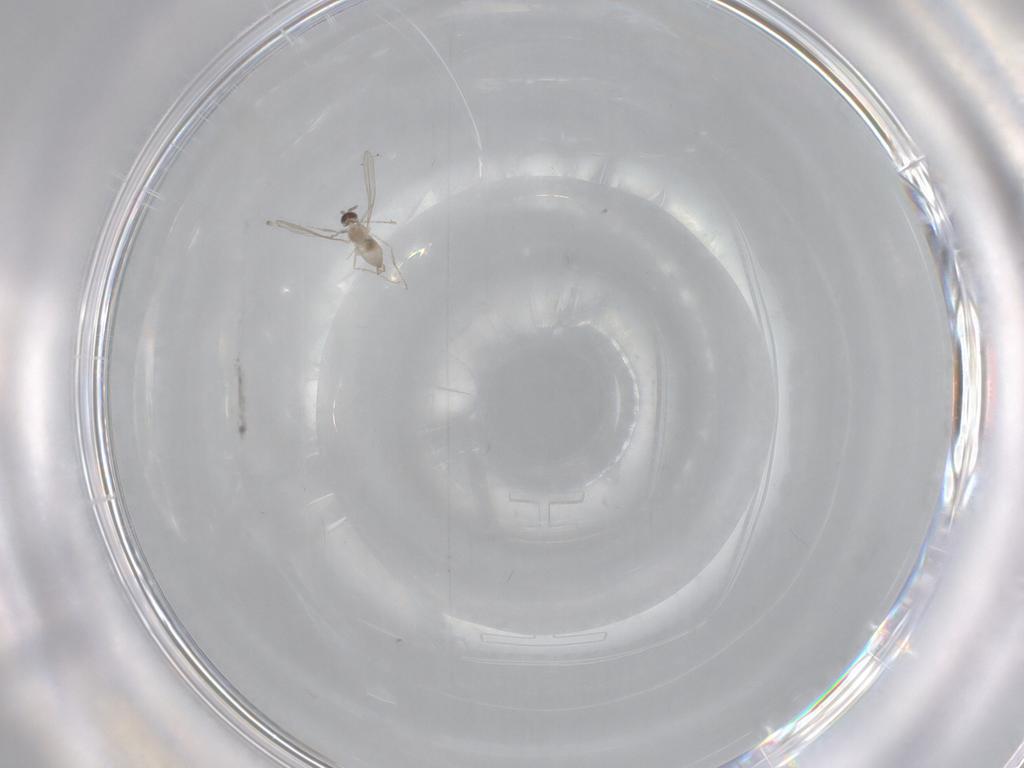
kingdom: Animalia
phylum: Arthropoda
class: Insecta
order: Diptera
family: Cecidomyiidae
